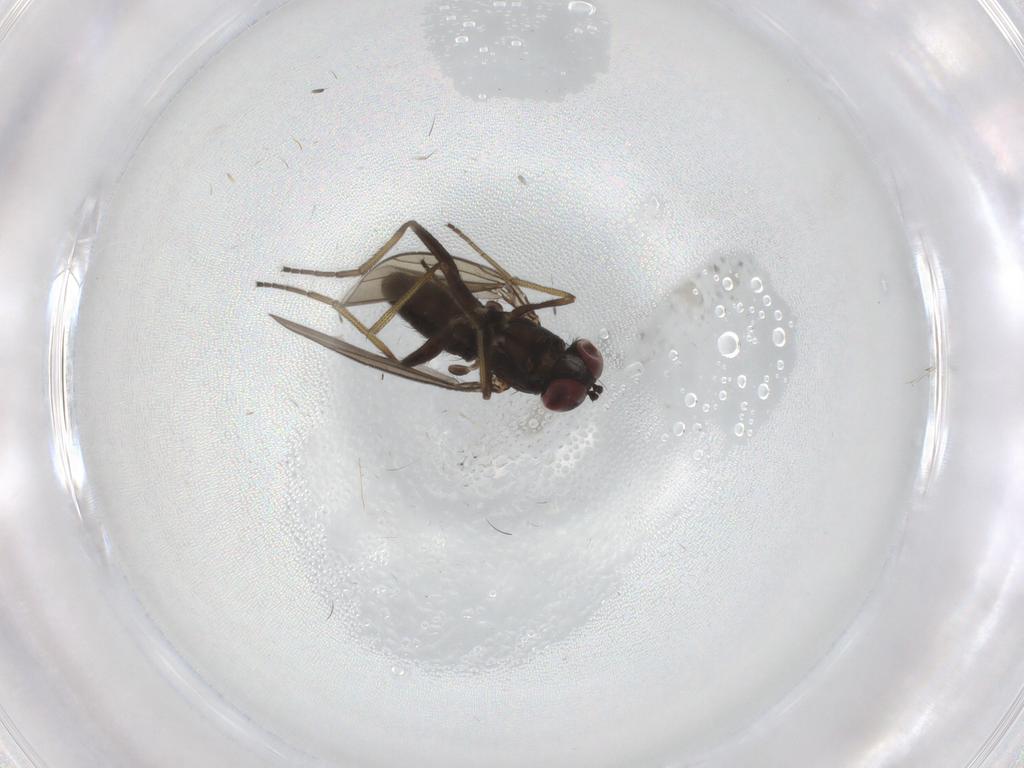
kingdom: Animalia
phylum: Arthropoda
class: Insecta
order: Diptera
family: Dolichopodidae
